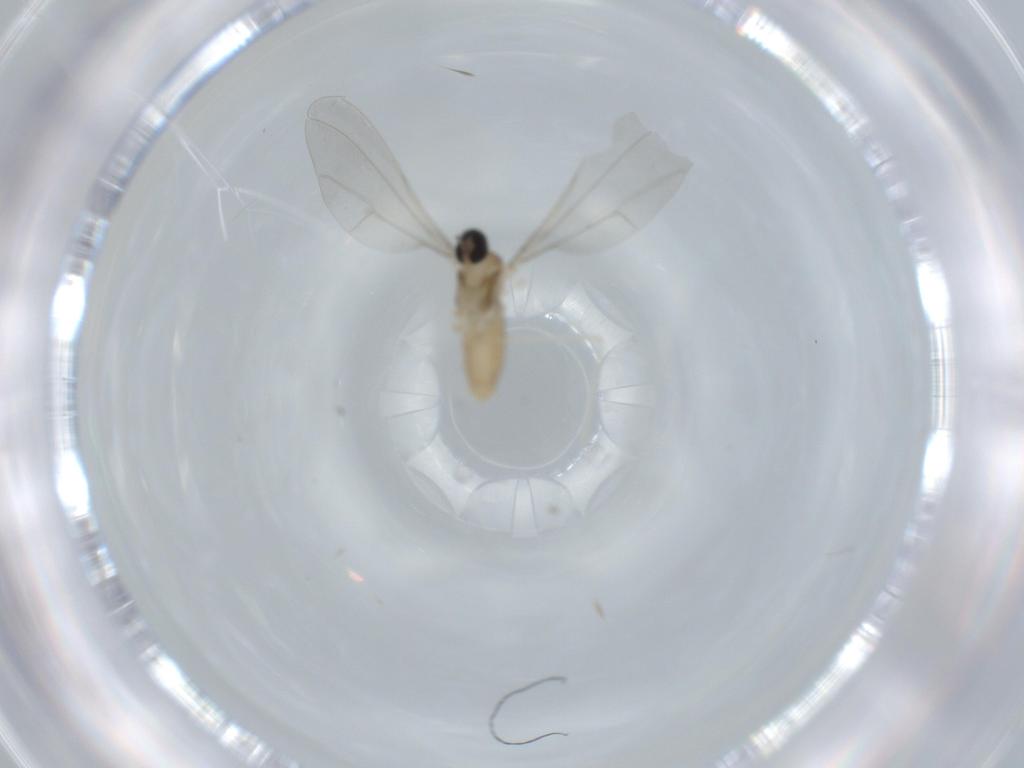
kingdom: Animalia
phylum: Arthropoda
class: Insecta
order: Diptera
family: Cecidomyiidae
